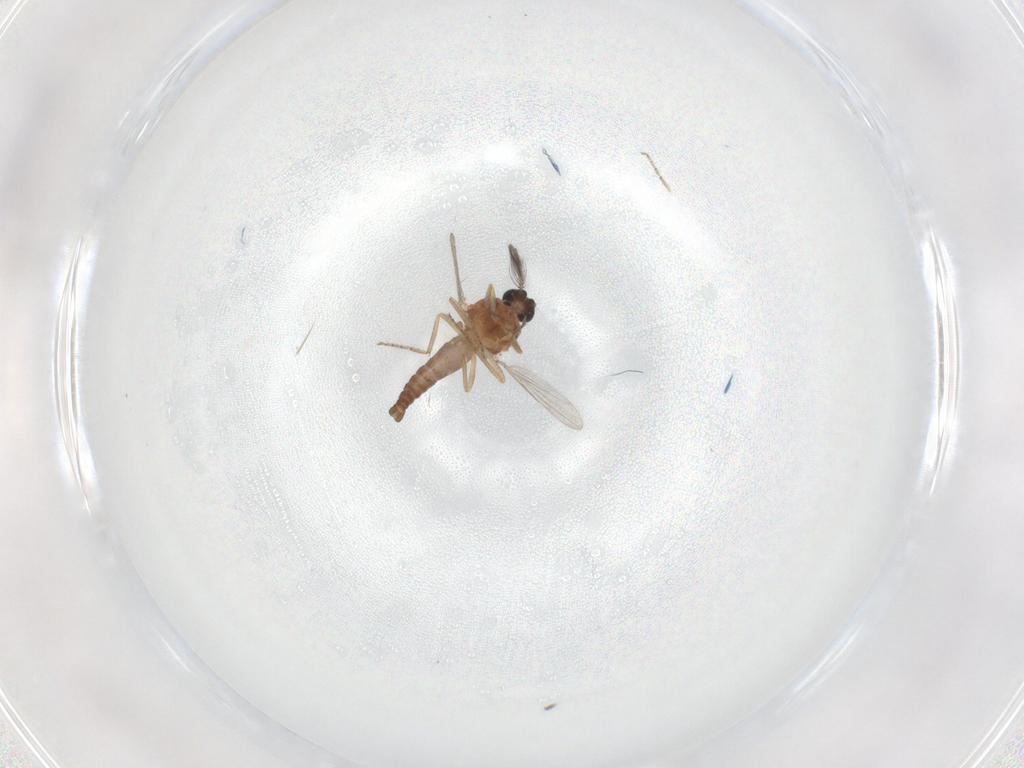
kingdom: Animalia
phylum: Arthropoda
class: Insecta
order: Diptera
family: Ceratopogonidae
